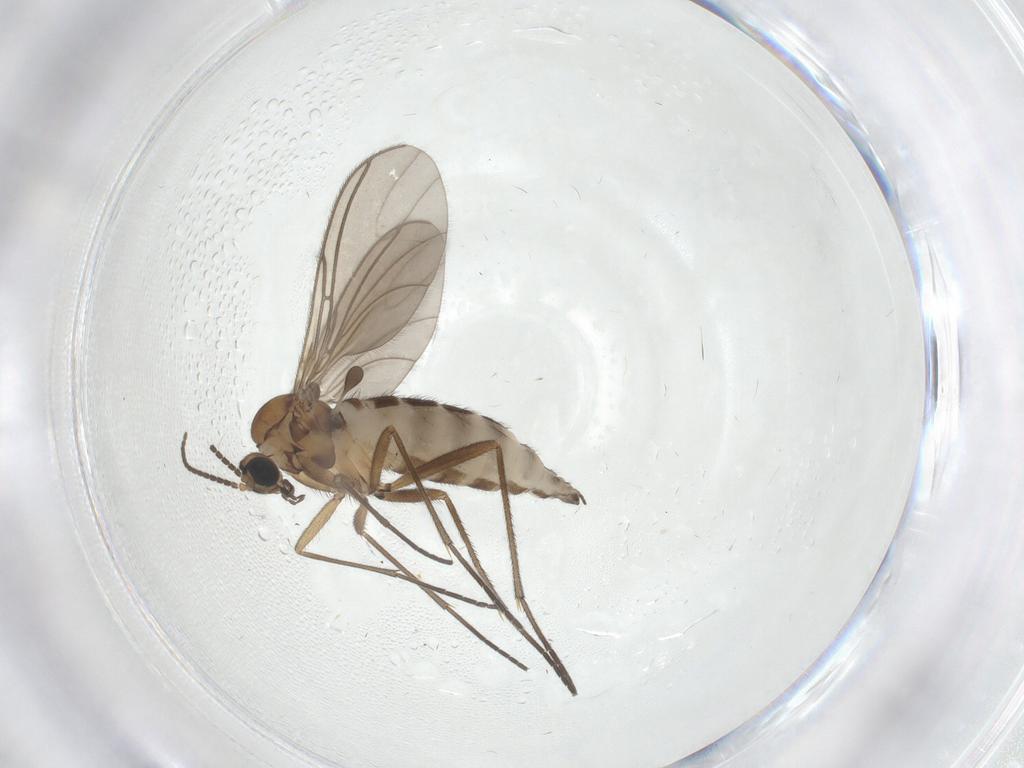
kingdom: Animalia
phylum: Arthropoda
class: Insecta
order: Diptera
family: Sciaridae
